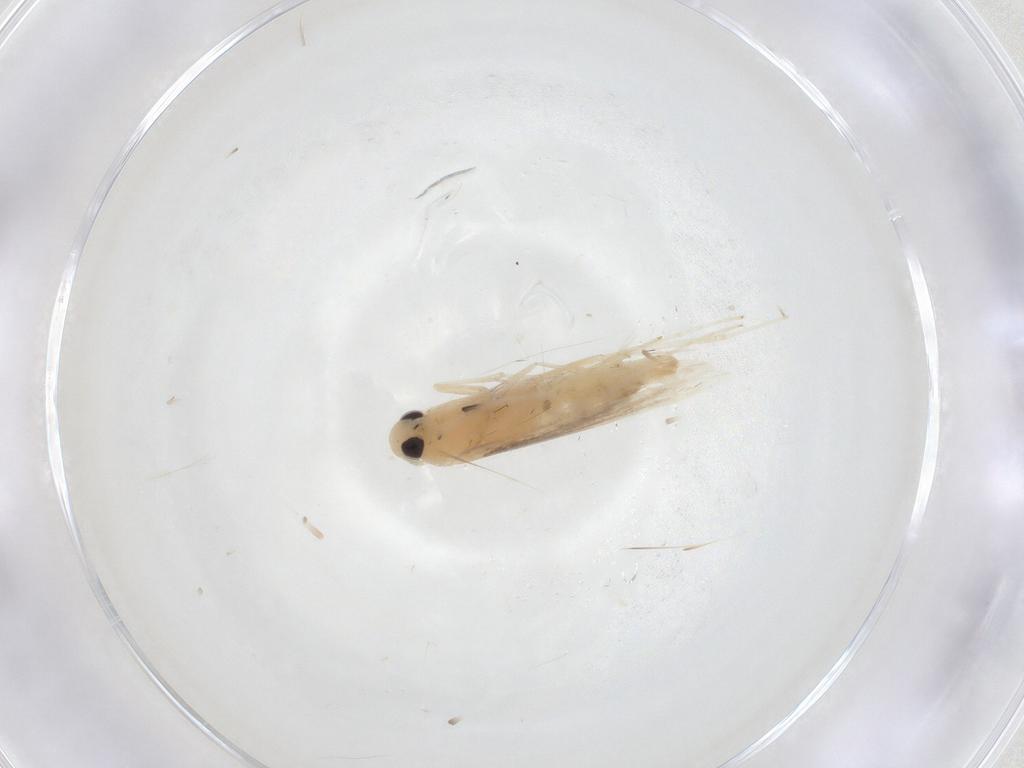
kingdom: Animalia
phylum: Arthropoda
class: Insecta
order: Lepidoptera
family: Blastobasidae
